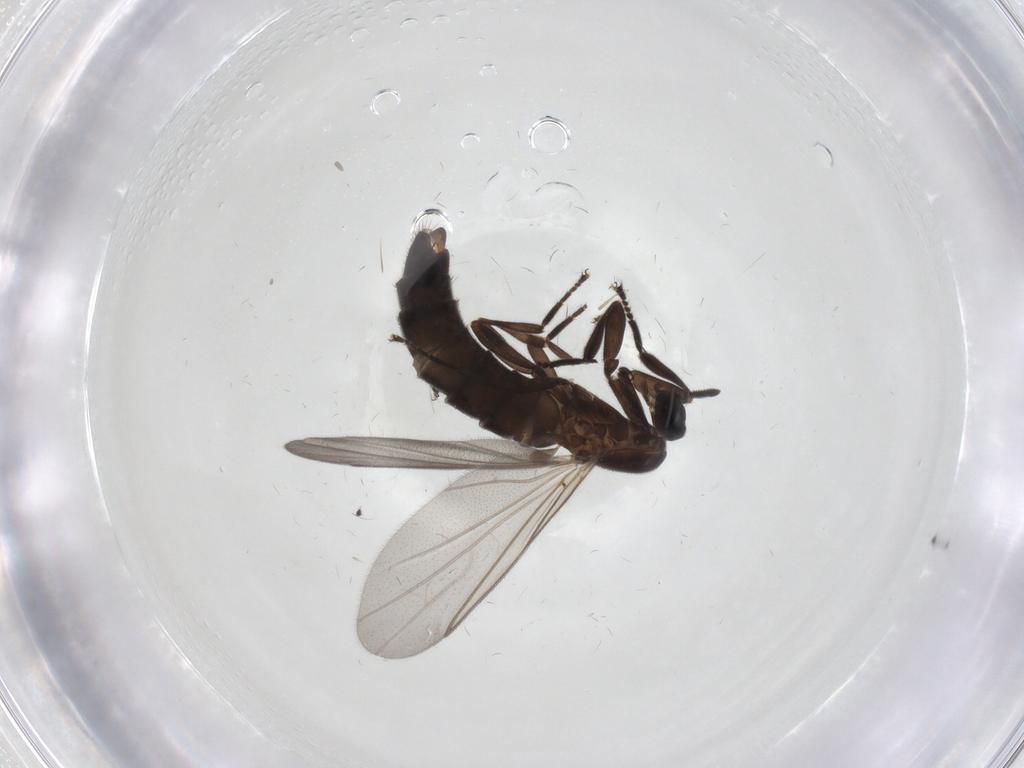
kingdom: Animalia
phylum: Arthropoda
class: Insecta
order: Diptera
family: Scatopsidae
